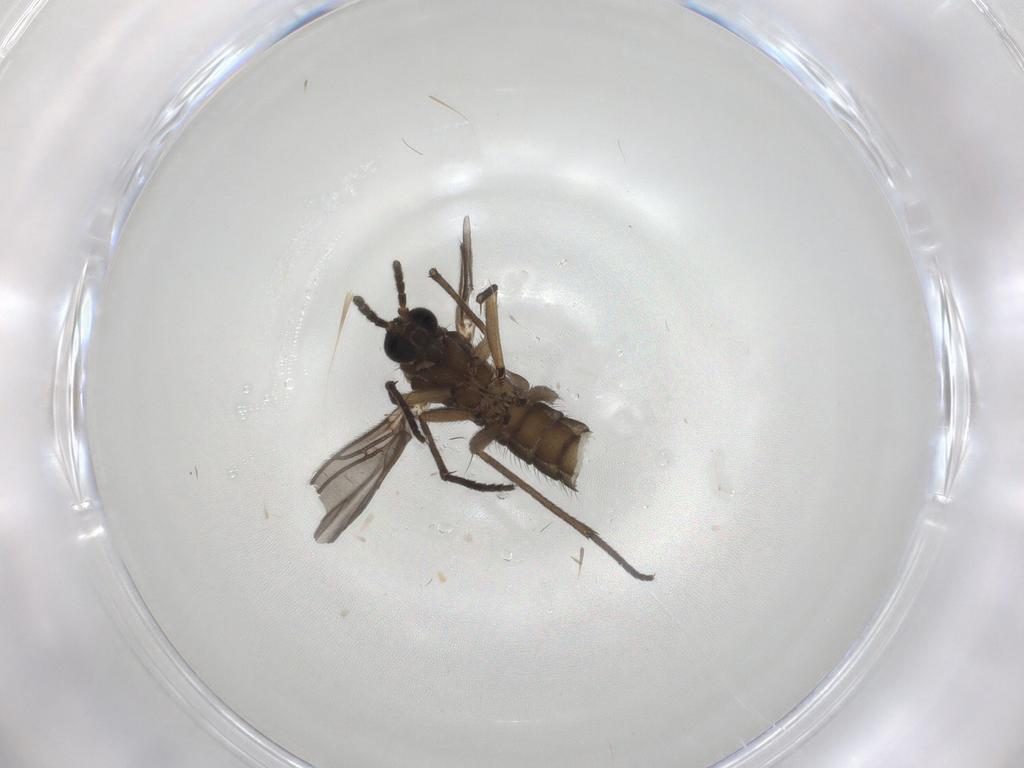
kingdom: Animalia
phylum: Arthropoda
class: Insecta
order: Diptera
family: Sciaridae
